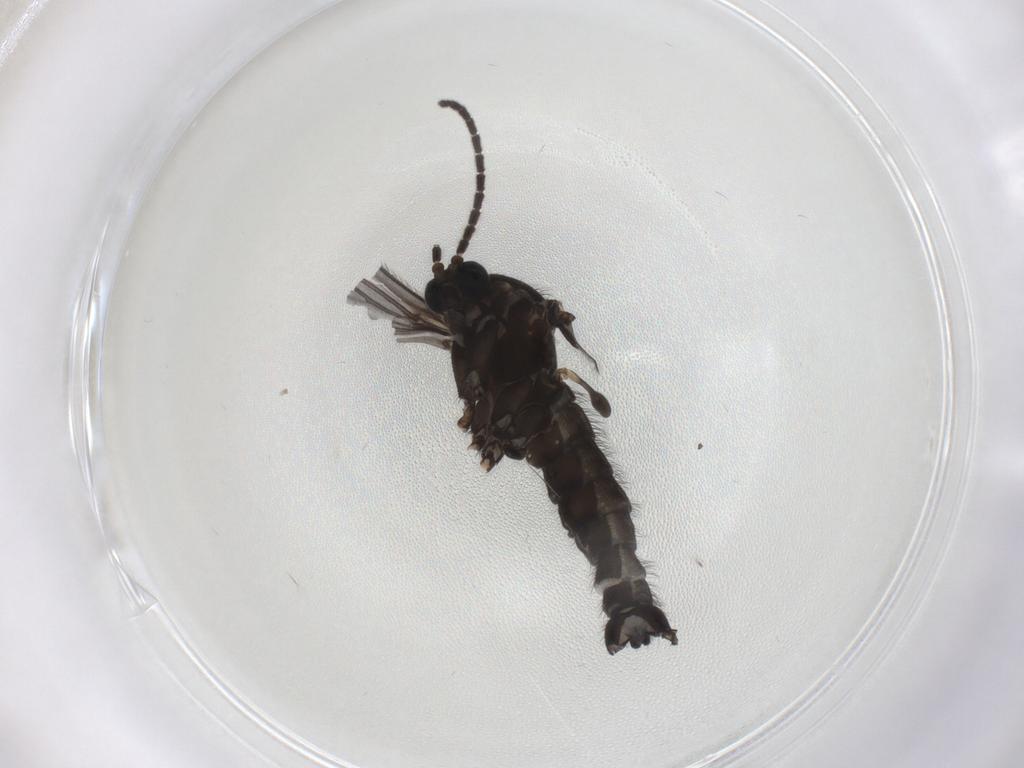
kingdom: Animalia
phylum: Arthropoda
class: Insecta
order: Diptera
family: Sciaridae
